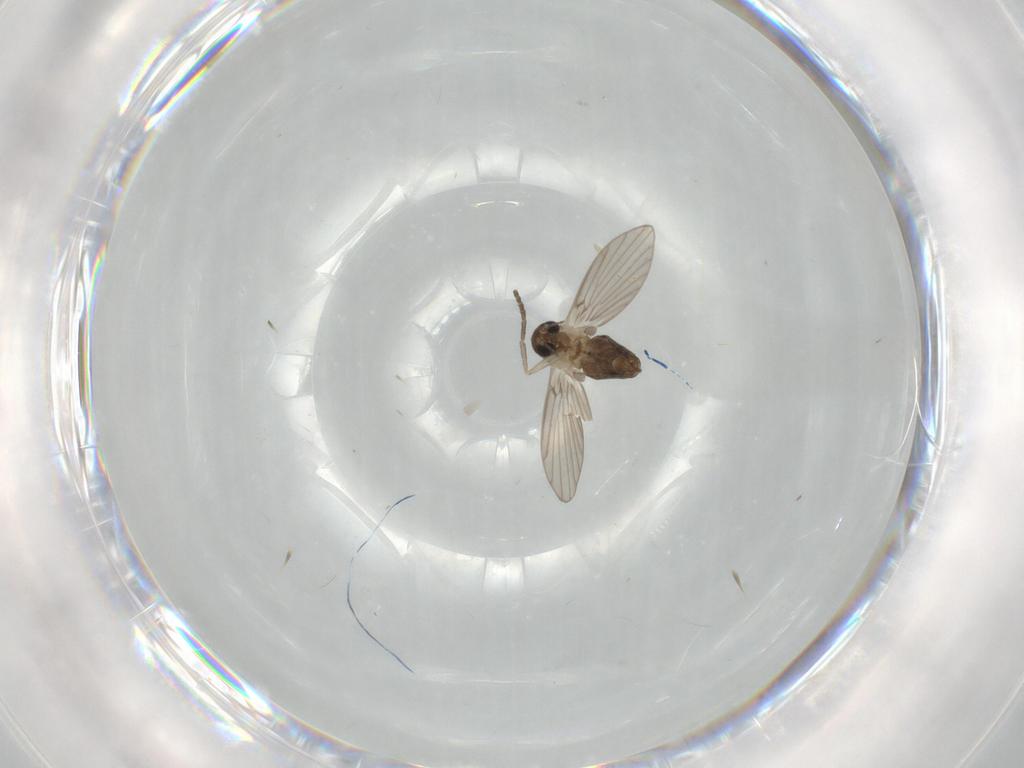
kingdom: Animalia
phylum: Arthropoda
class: Insecta
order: Diptera
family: Psychodidae
